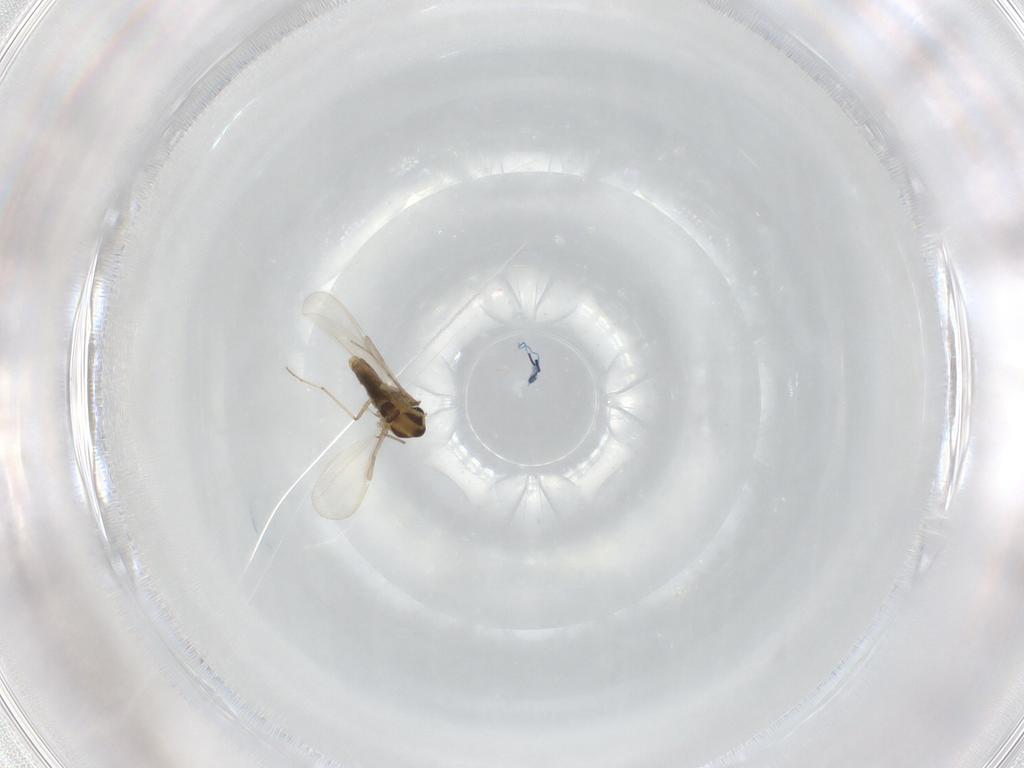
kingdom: Animalia
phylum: Arthropoda
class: Insecta
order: Diptera
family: Chironomidae
